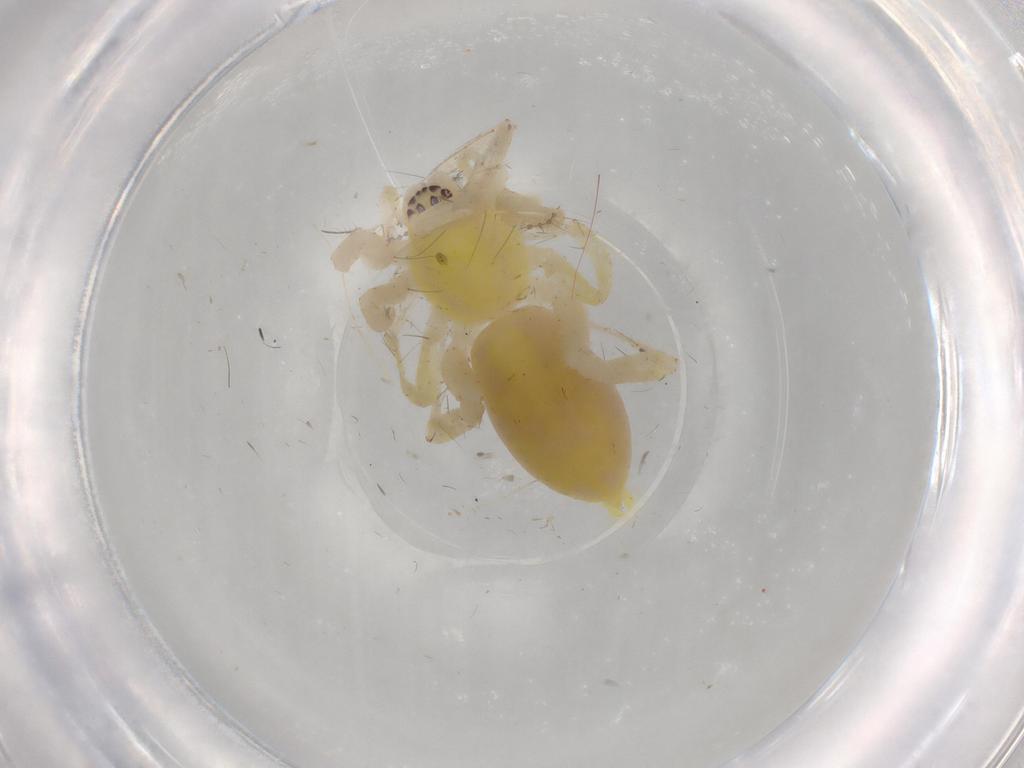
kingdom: Animalia
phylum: Arthropoda
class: Arachnida
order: Araneae
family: Anyphaenidae
